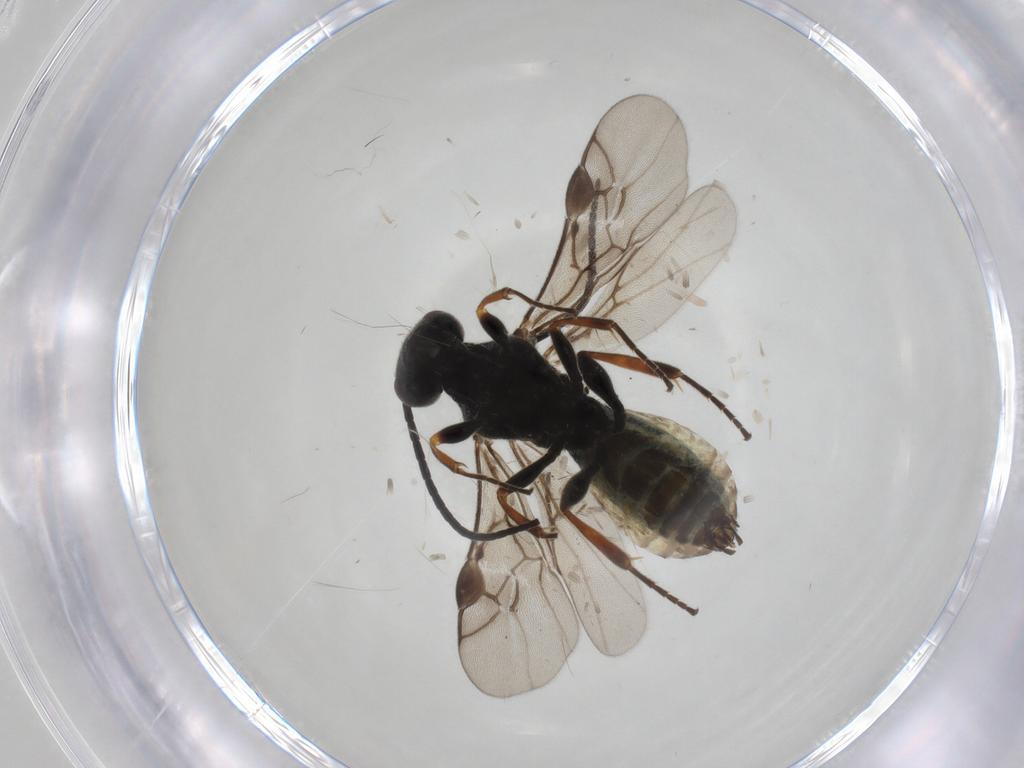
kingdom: Animalia
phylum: Arthropoda
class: Insecta
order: Hymenoptera
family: Braconidae
